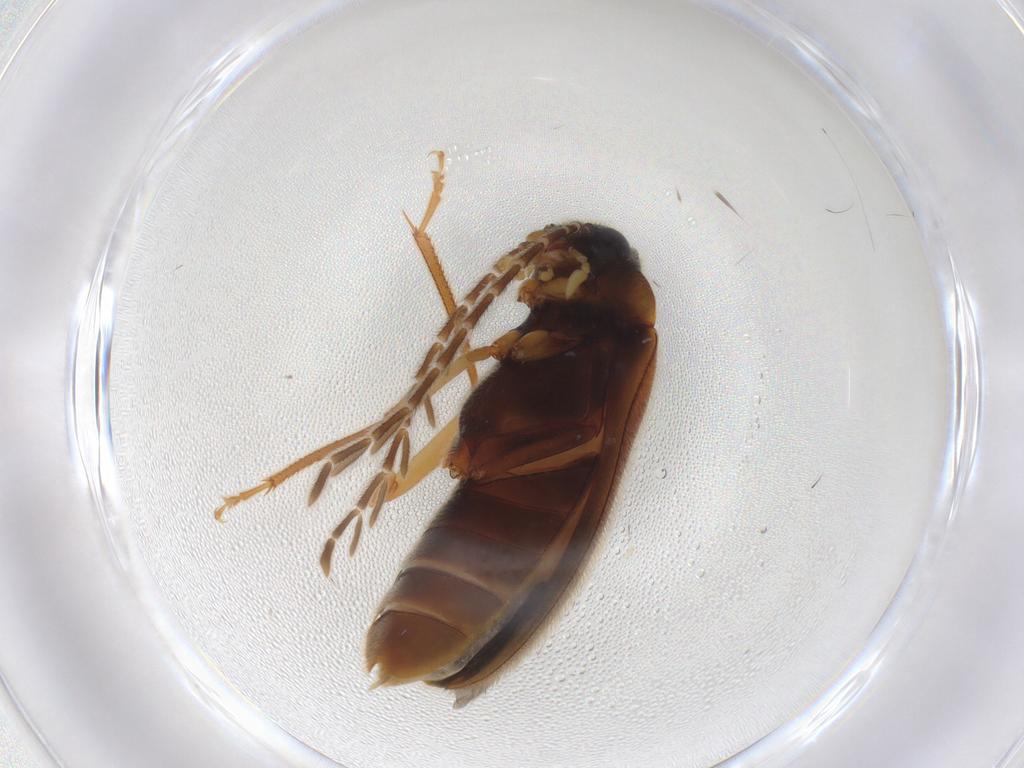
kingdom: Animalia
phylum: Arthropoda
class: Insecta
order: Coleoptera
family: Ptilodactylidae
